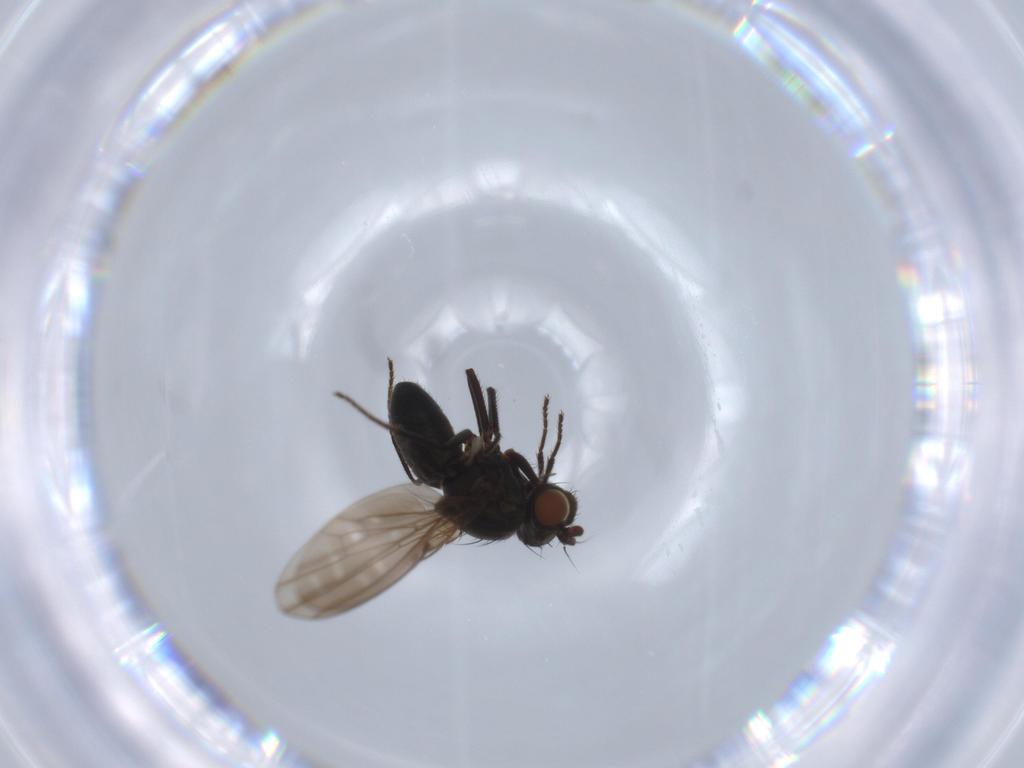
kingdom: Animalia
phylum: Arthropoda
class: Insecta
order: Diptera
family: Ephydridae
